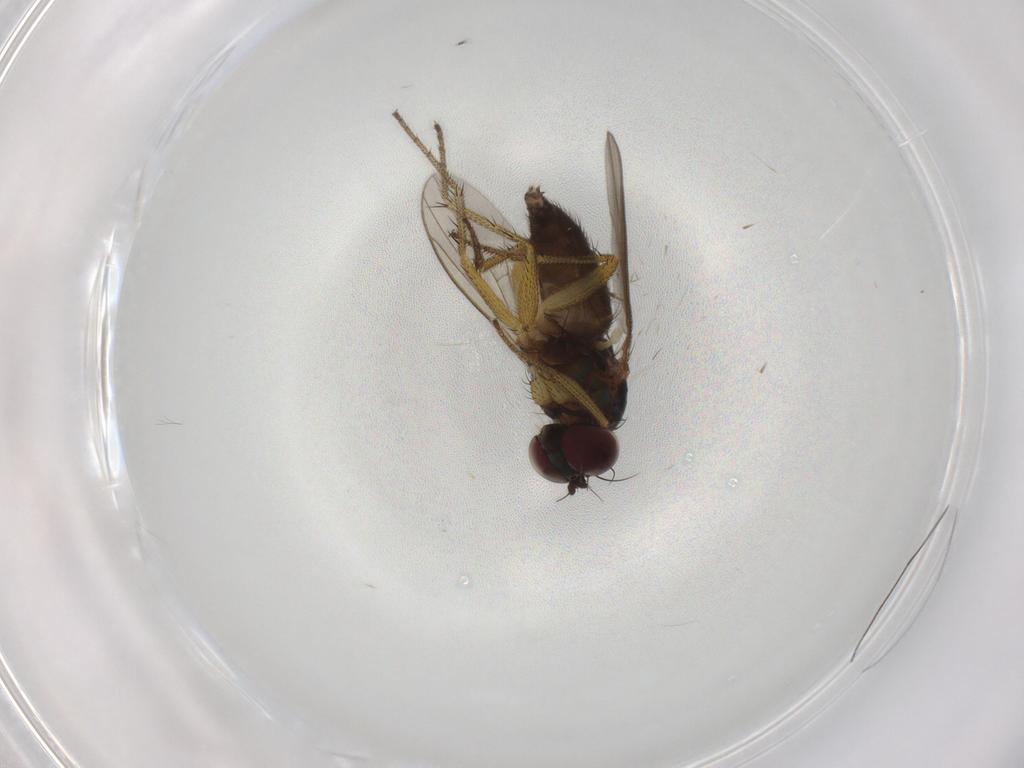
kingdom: Animalia
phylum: Arthropoda
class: Insecta
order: Diptera
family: Dolichopodidae
